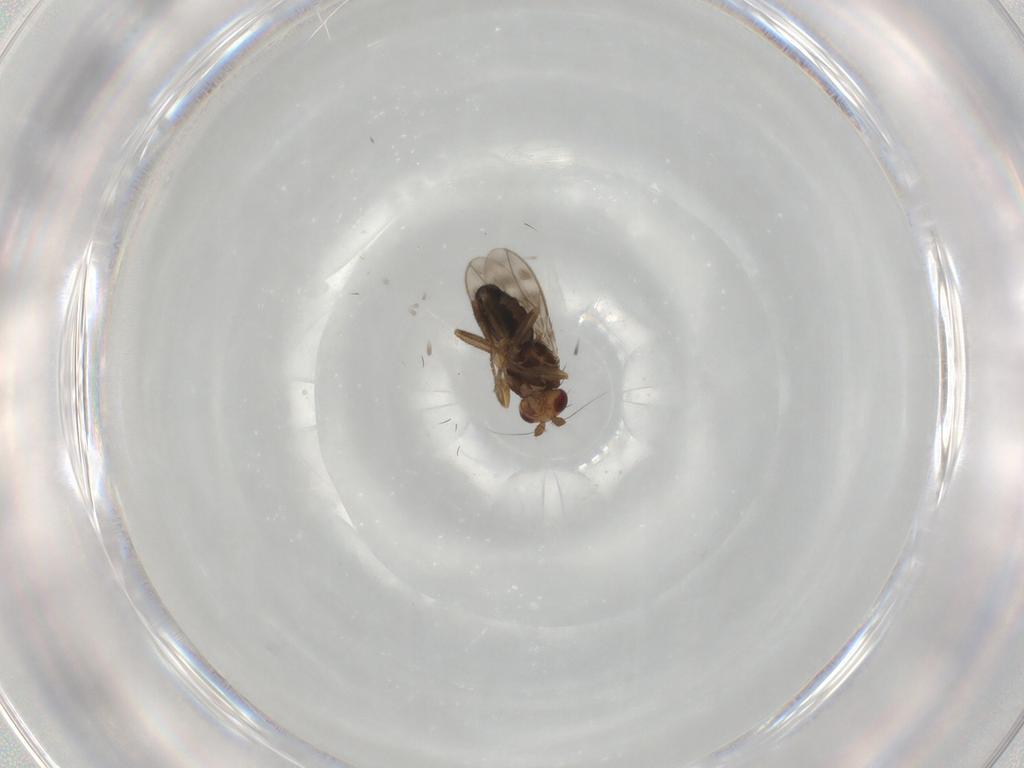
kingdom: Animalia
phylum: Arthropoda
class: Insecta
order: Diptera
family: Sphaeroceridae
